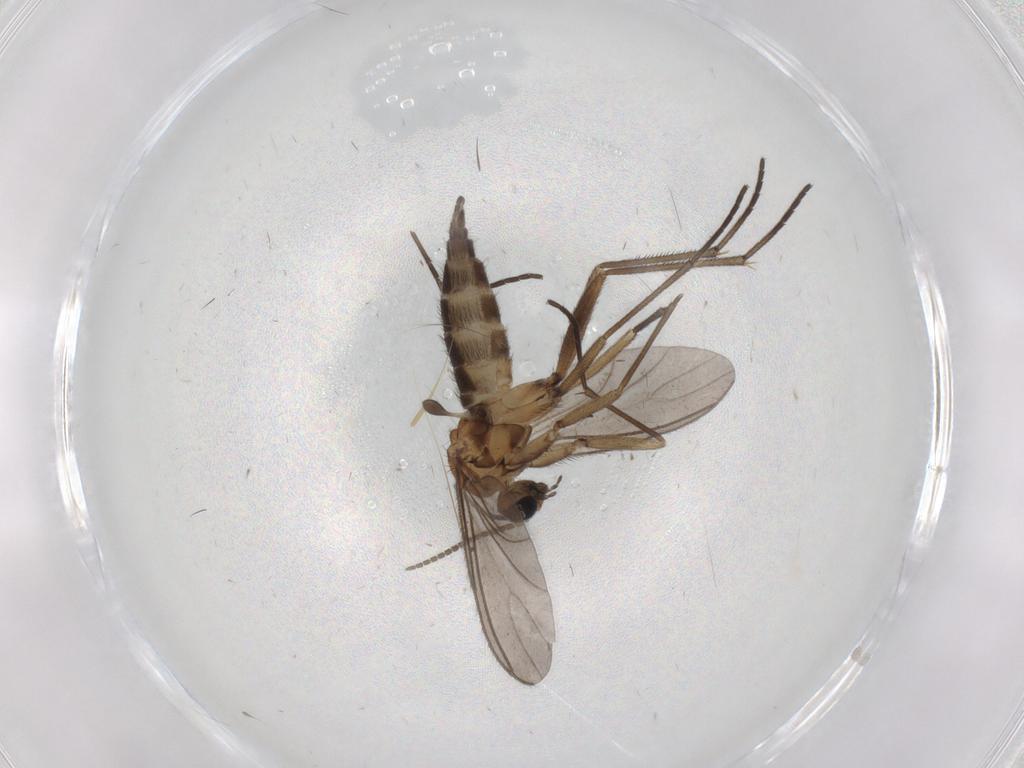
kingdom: Animalia
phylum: Arthropoda
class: Insecta
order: Diptera
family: Sciaridae
